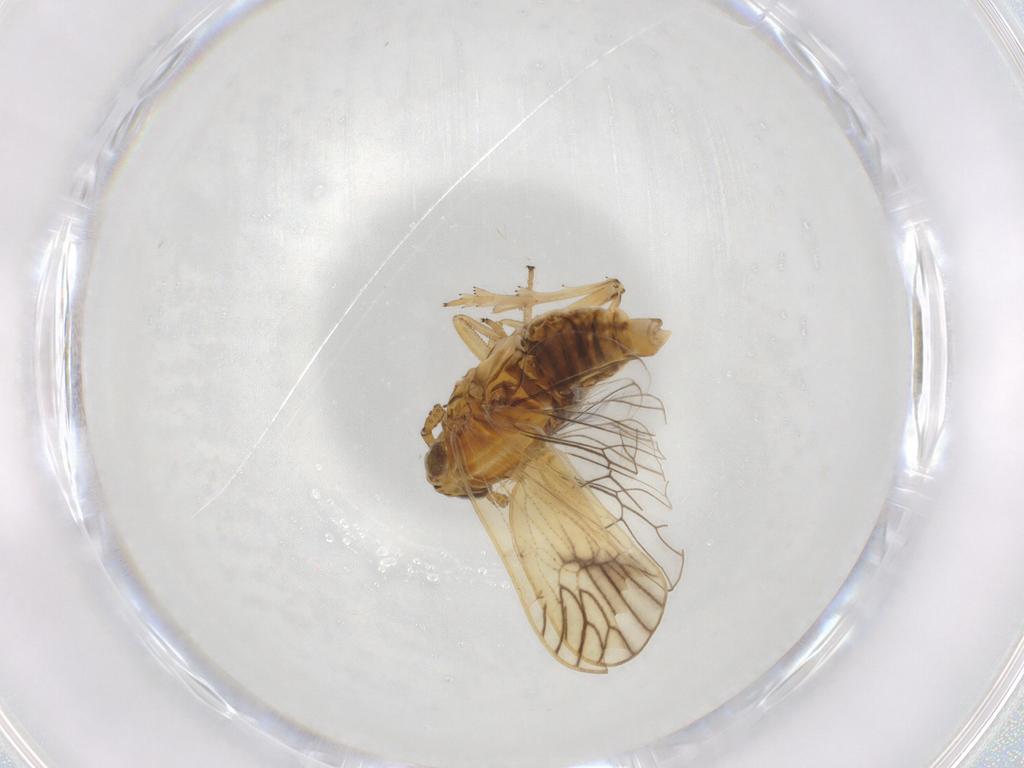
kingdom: Animalia
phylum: Arthropoda
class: Insecta
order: Hemiptera
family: Delphacidae
